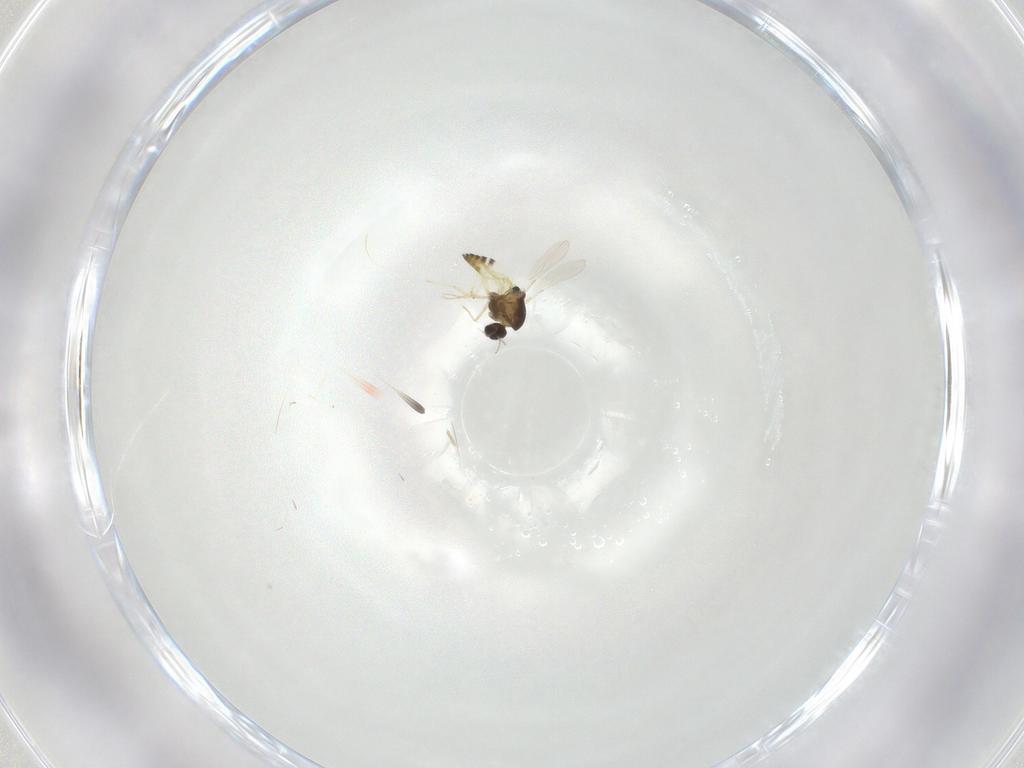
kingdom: Animalia
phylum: Arthropoda
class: Insecta
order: Diptera
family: Chironomidae
